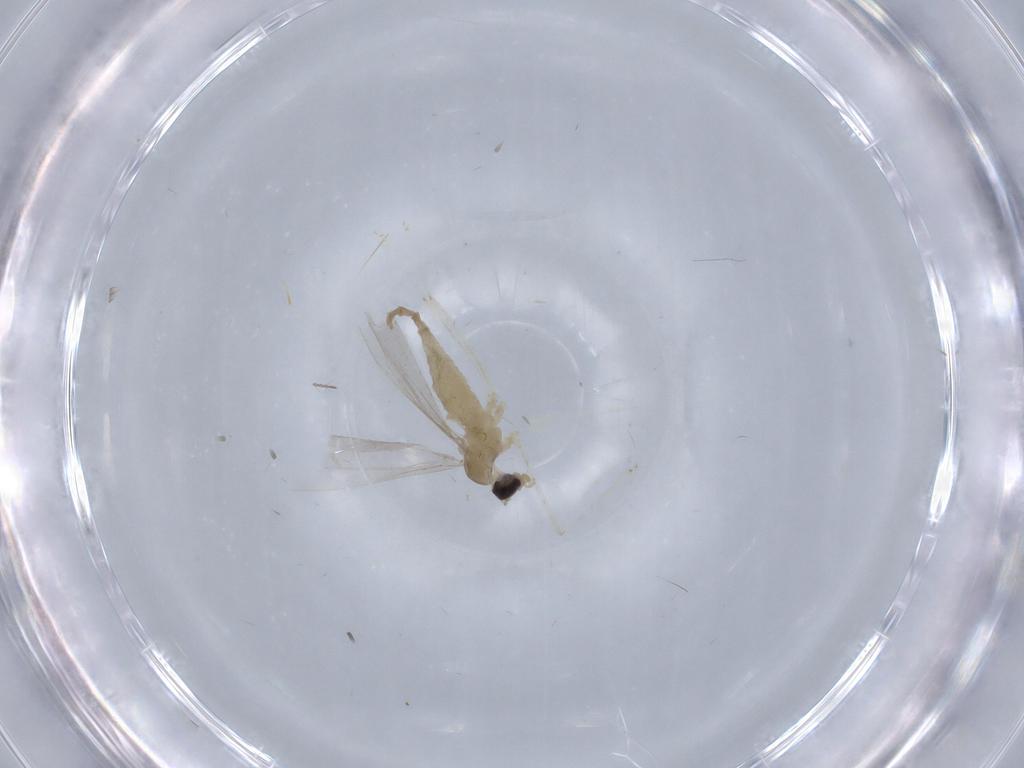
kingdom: Animalia
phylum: Arthropoda
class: Insecta
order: Diptera
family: Cecidomyiidae
